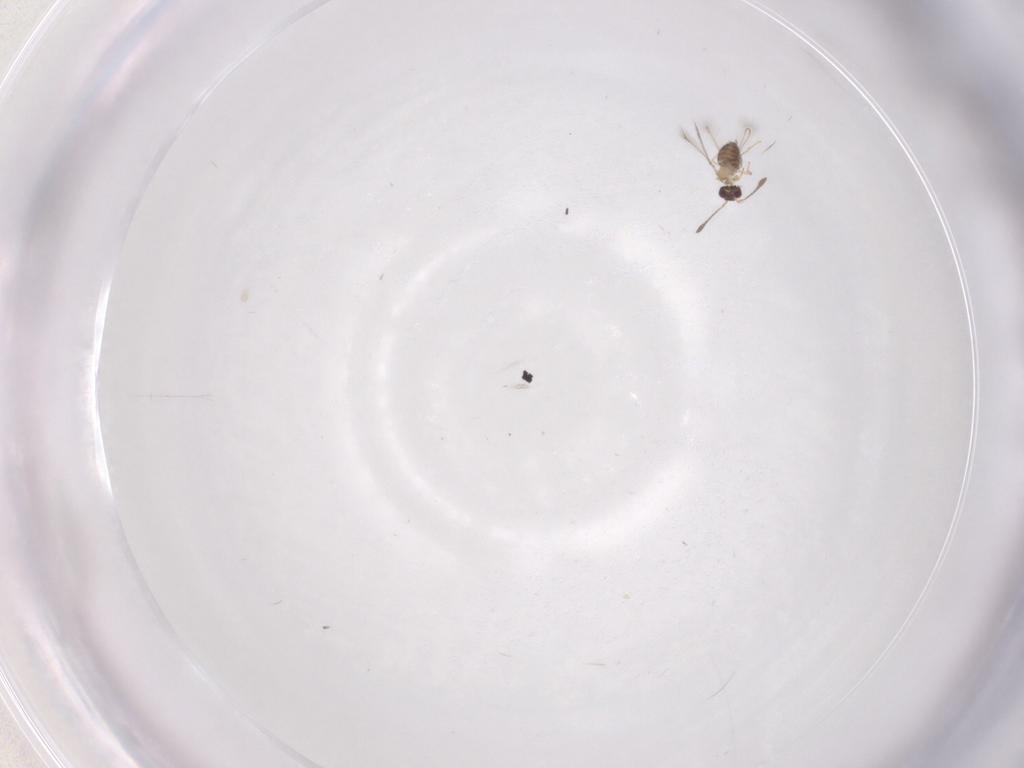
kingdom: Animalia
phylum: Arthropoda
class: Insecta
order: Hymenoptera
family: Mymaridae
